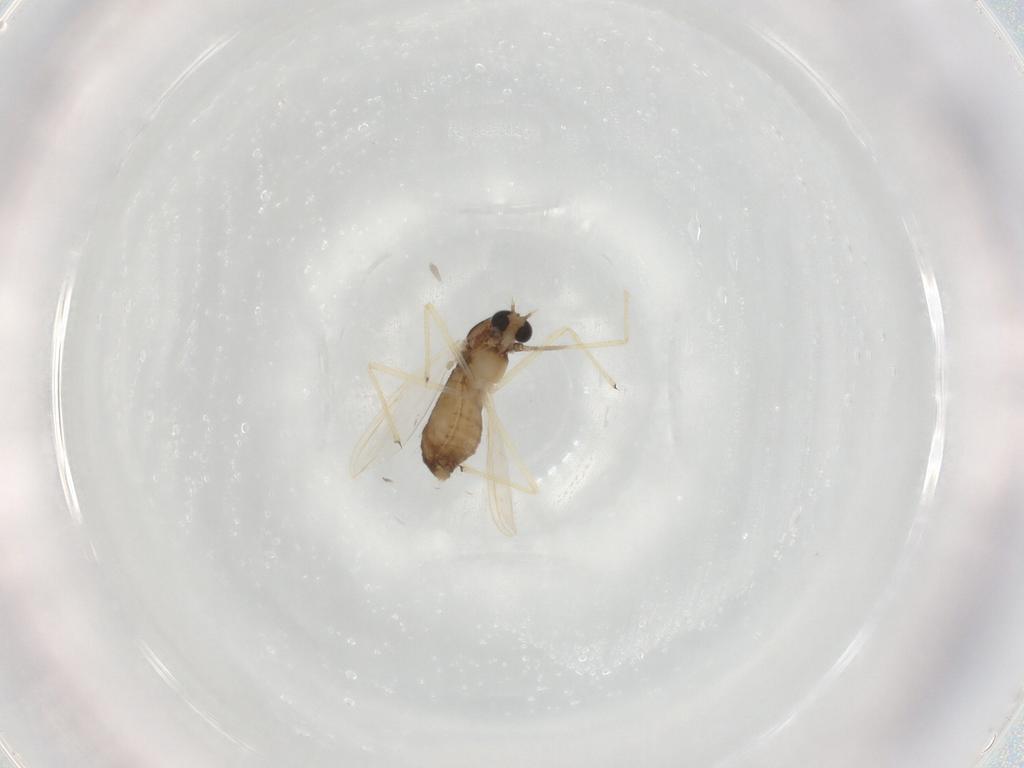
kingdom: Animalia
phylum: Arthropoda
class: Insecta
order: Diptera
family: Chironomidae
